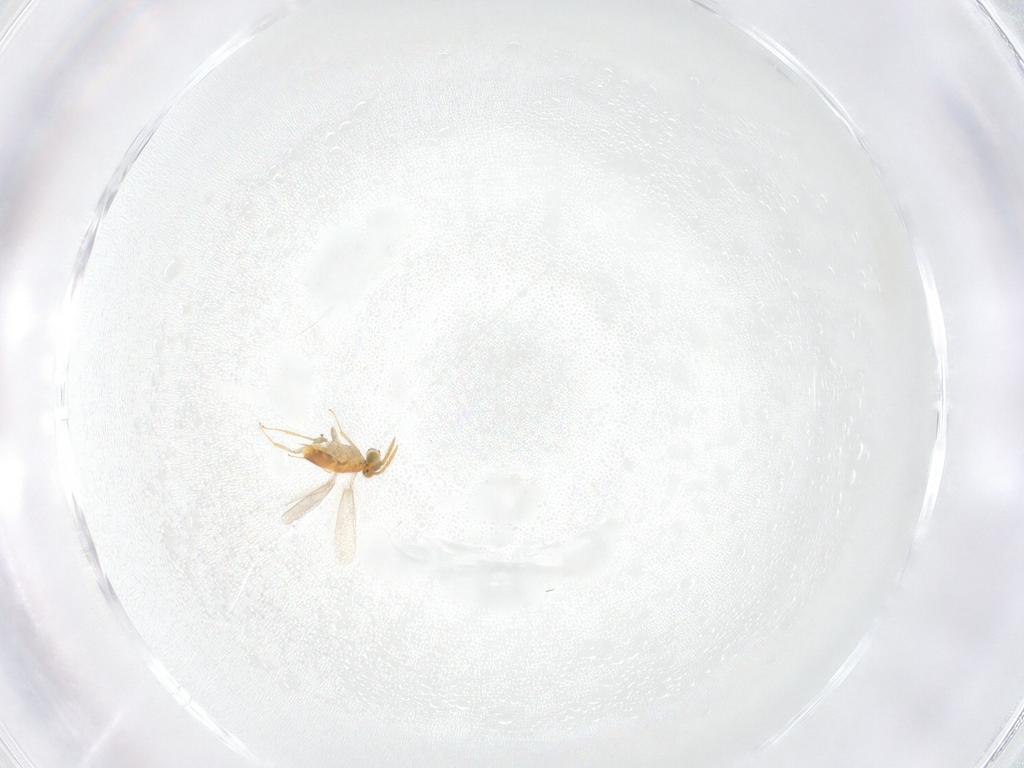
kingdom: Animalia
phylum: Arthropoda
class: Insecta
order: Hymenoptera
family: Aphelinidae
